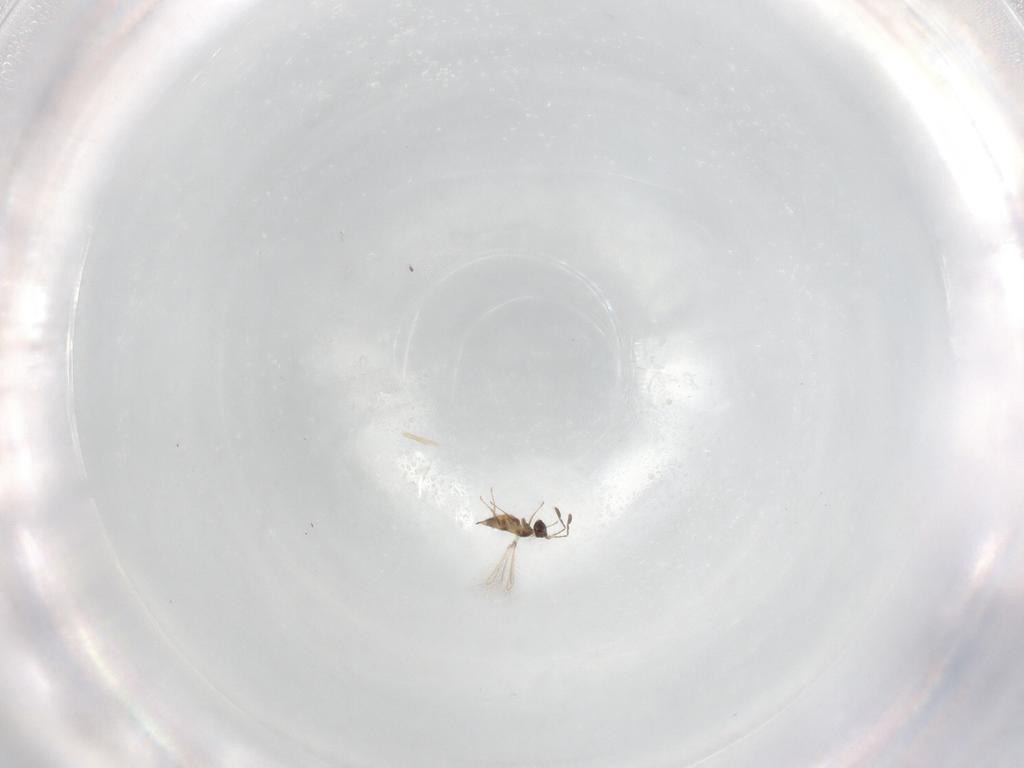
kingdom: Animalia
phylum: Arthropoda
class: Insecta
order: Hymenoptera
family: Mymaridae
